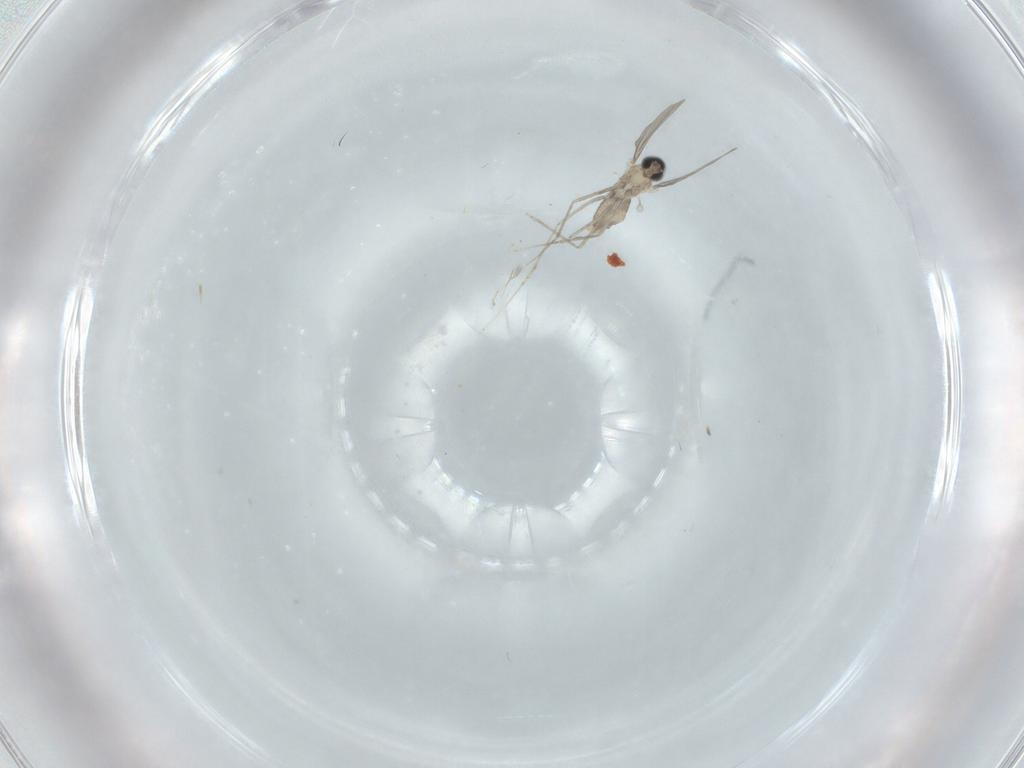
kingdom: Animalia
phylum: Arthropoda
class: Insecta
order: Diptera
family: Cecidomyiidae
